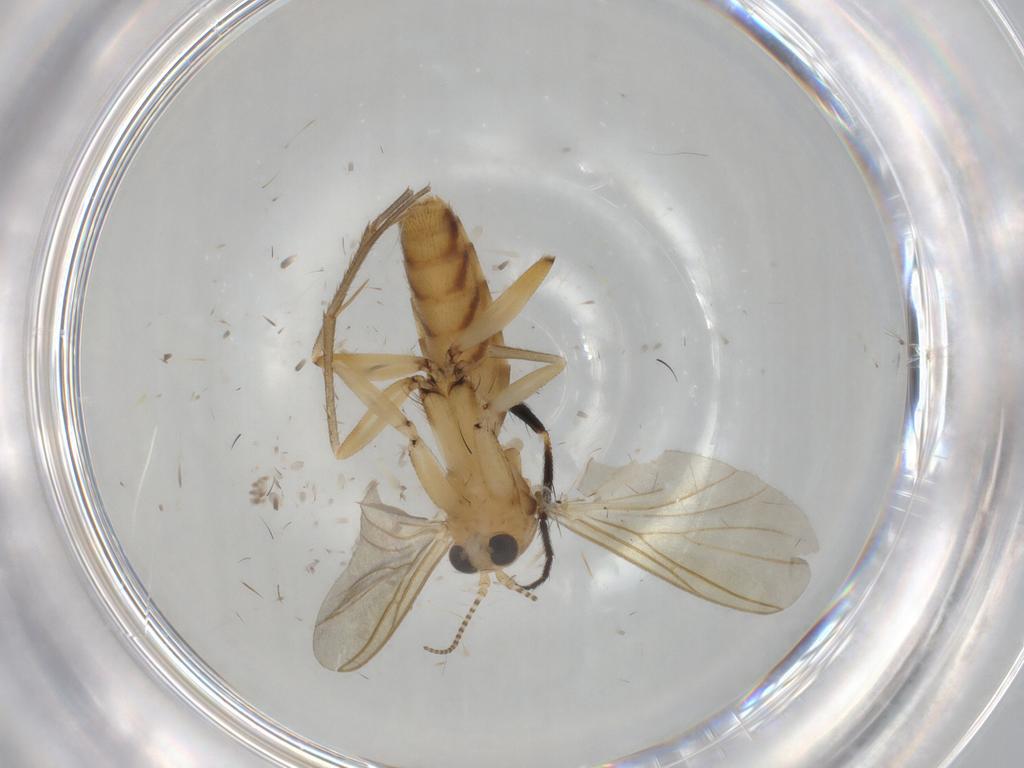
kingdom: Animalia
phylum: Arthropoda
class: Insecta
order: Diptera
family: Mycetophilidae
